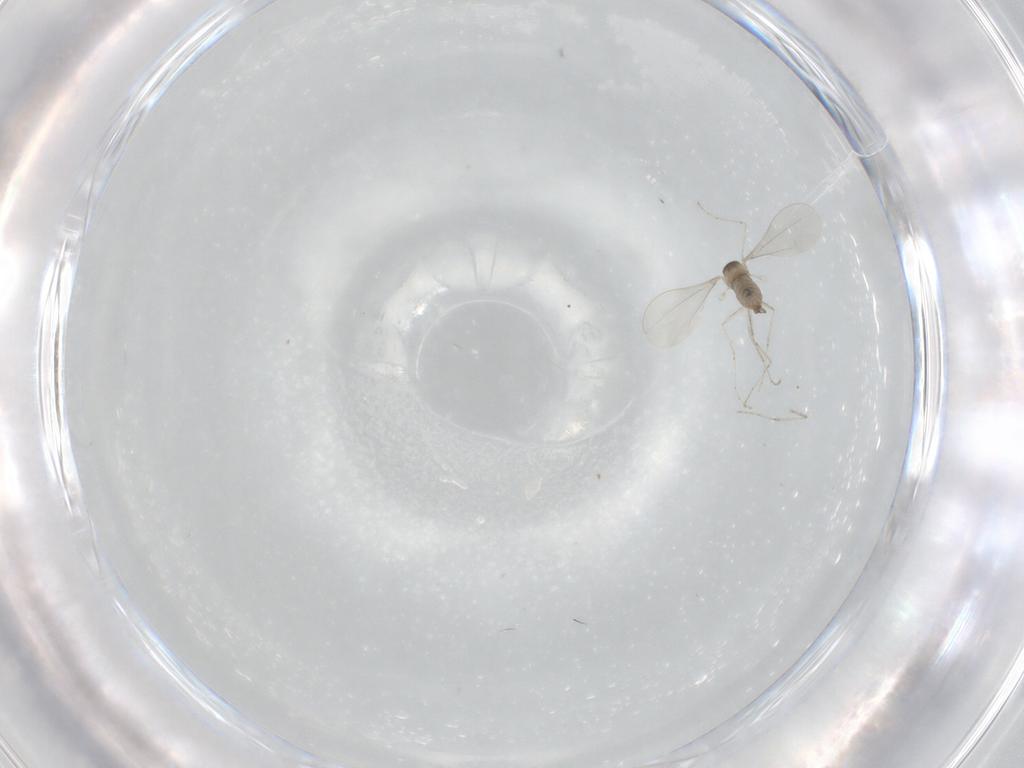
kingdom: Animalia
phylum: Arthropoda
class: Insecta
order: Diptera
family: Cecidomyiidae
